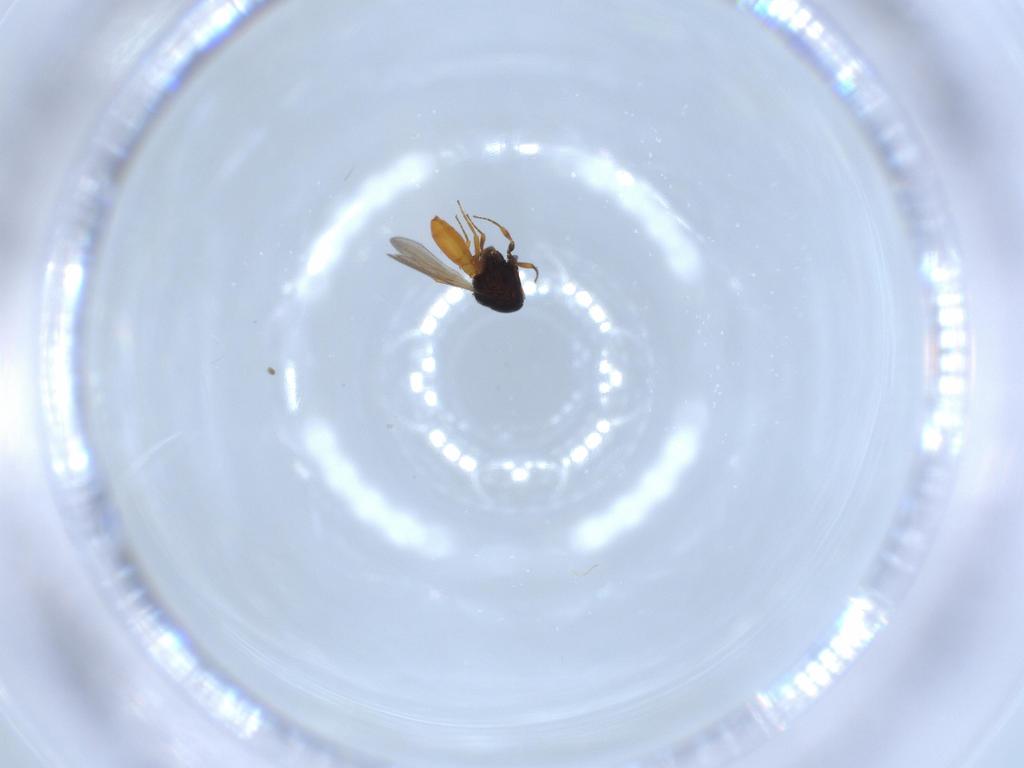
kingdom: Animalia
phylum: Arthropoda
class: Insecta
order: Hymenoptera
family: Scelionidae
